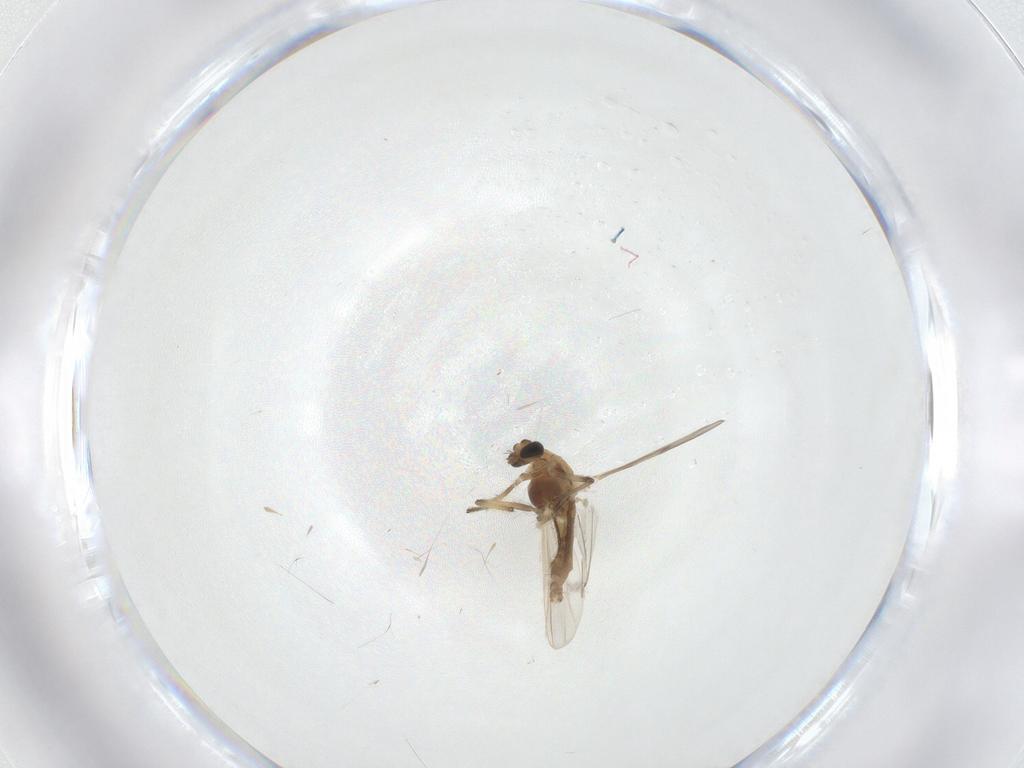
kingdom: Animalia
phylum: Arthropoda
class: Insecta
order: Diptera
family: Chironomidae
